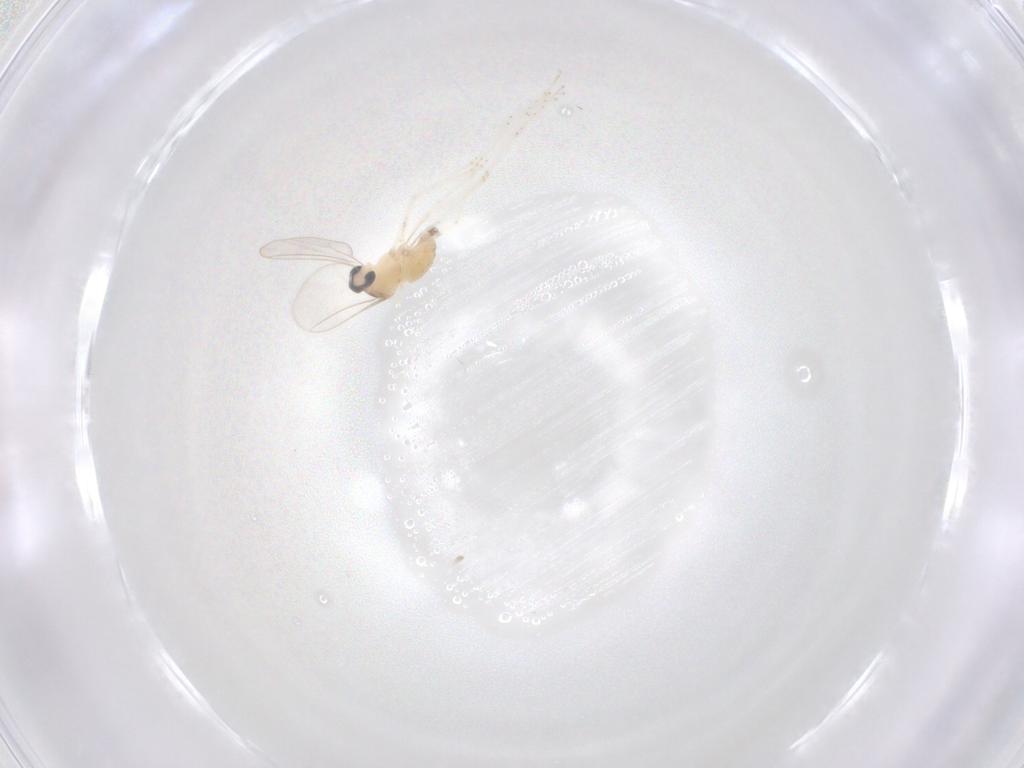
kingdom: Animalia
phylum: Arthropoda
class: Insecta
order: Diptera
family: Cecidomyiidae
